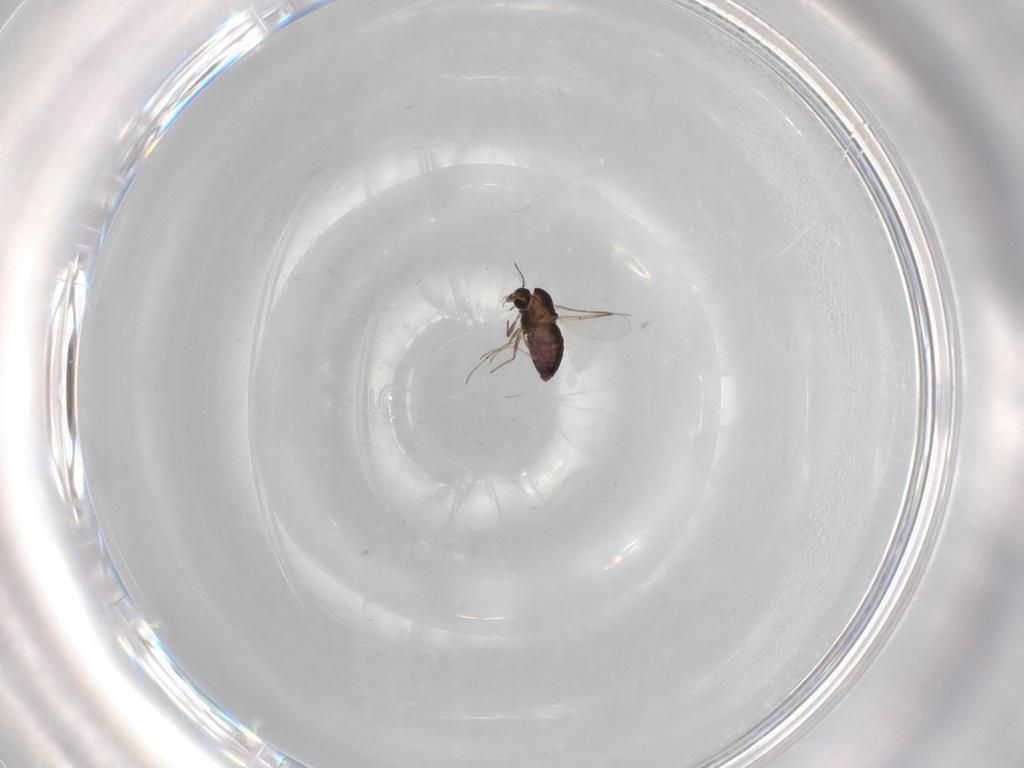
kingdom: Animalia
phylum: Arthropoda
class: Insecta
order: Diptera
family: Chironomidae
